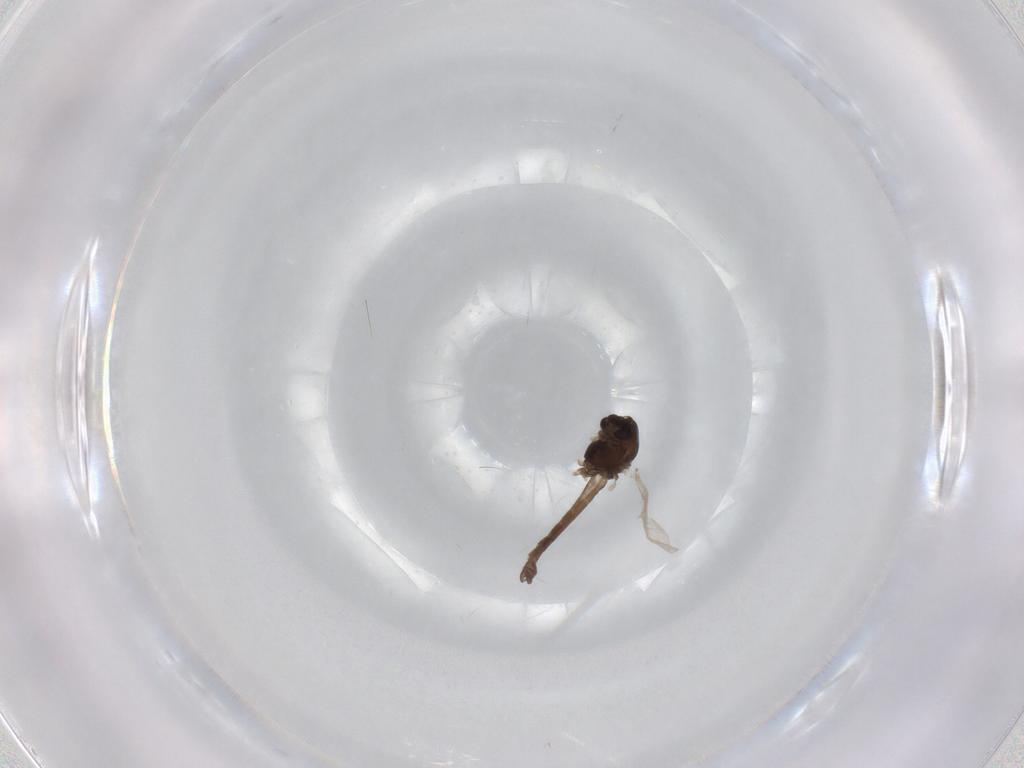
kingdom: Animalia
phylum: Arthropoda
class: Insecta
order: Diptera
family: Chironomidae
